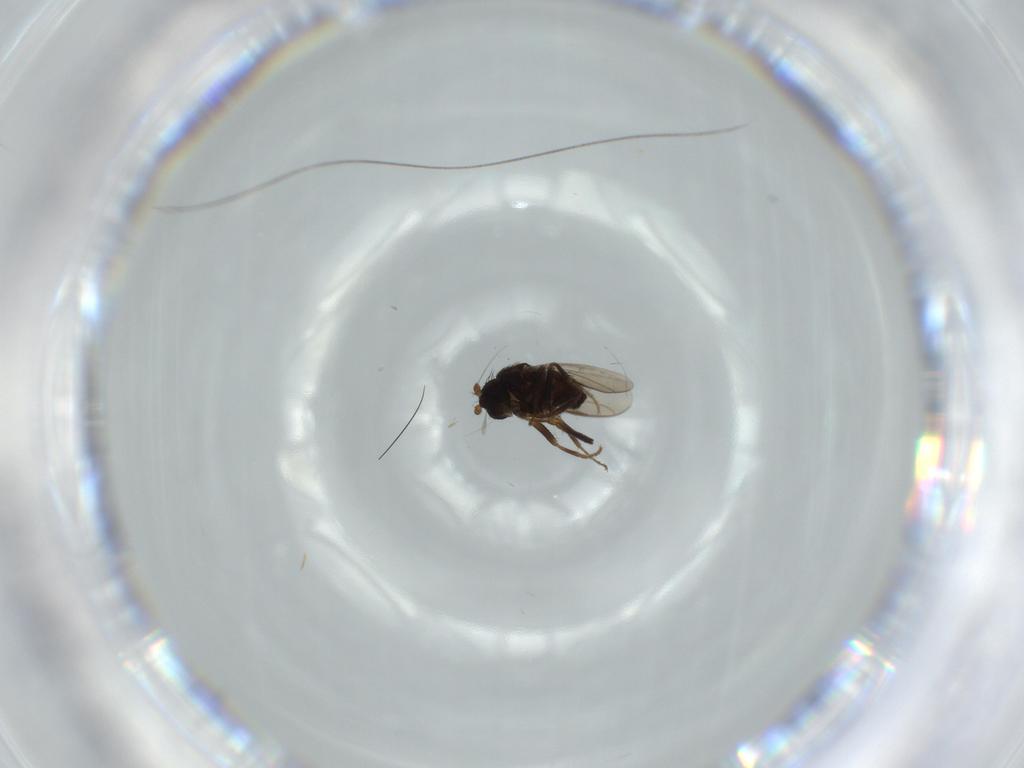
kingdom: Animalia
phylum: Arthropoda
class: Insecta
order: Diptera
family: Sphaeroceridae
